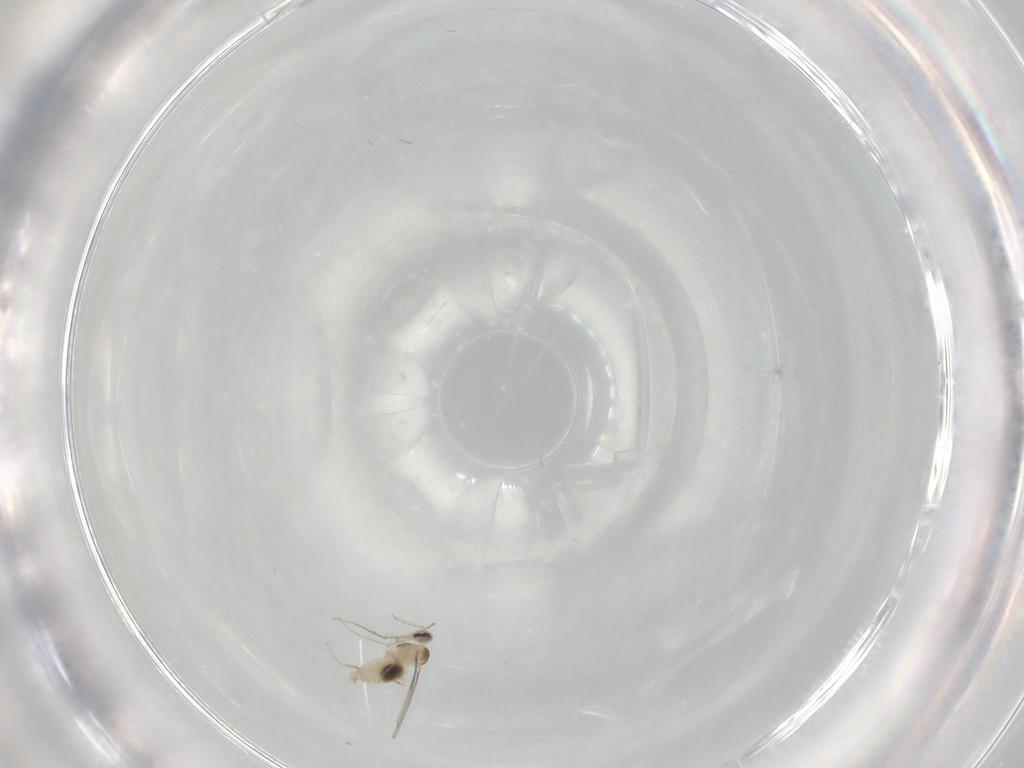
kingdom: Animalia
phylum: Arthropoda
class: Insecta
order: Diptera
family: Cecidomyiidae
